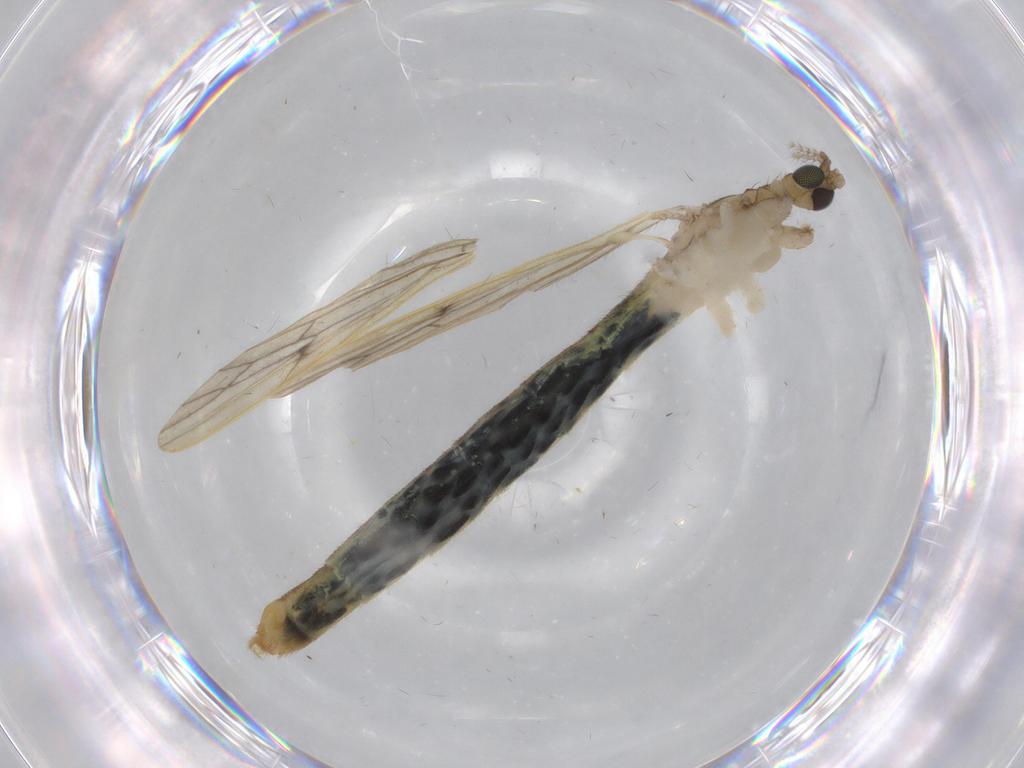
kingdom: Animalia
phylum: Arthropoda
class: Insecta
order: Diptera
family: Limoniidae
